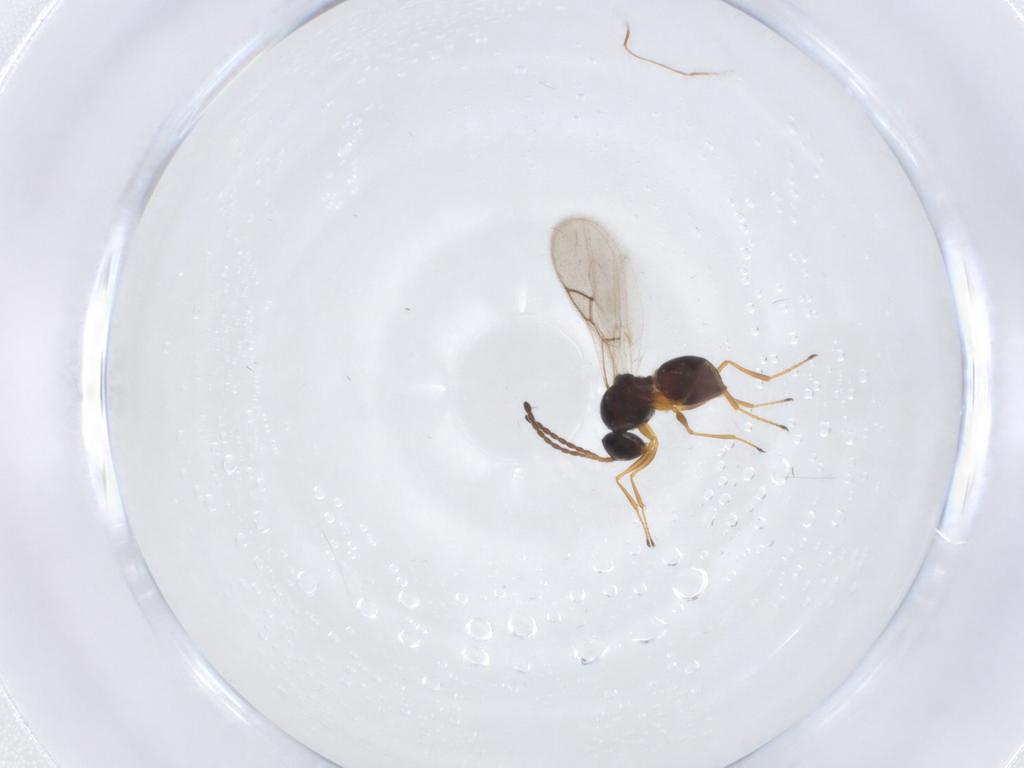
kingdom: Animalia
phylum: Arthropoda
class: Insecta
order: Hymenoptera
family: Figitidae
